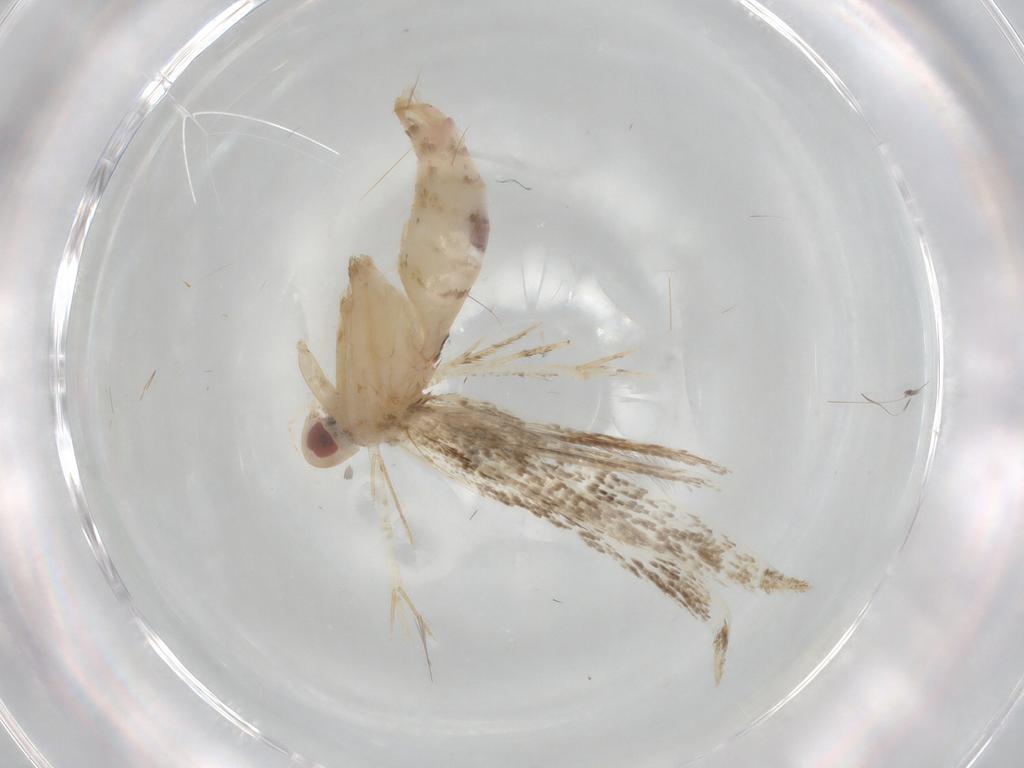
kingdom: Animalia
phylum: Arthropoda
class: Insecta
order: Lepidoptera
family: Cosmopterigidae
